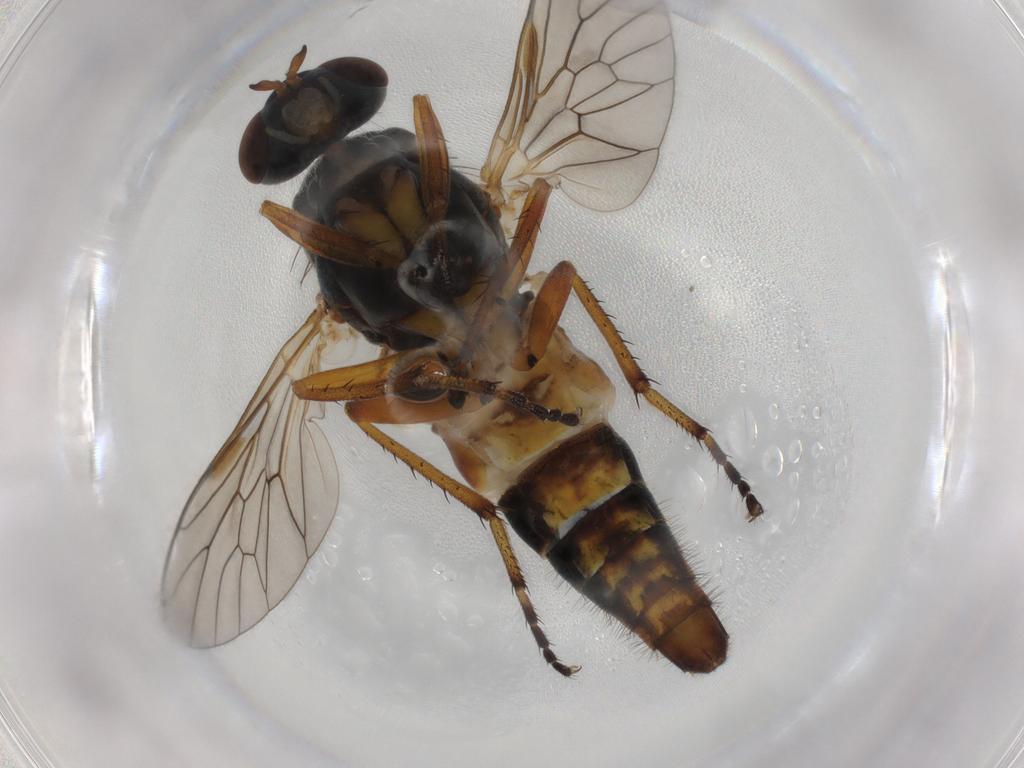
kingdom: Animalia
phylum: Arthropoda
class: Insecta
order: Diptera
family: Therevidae
